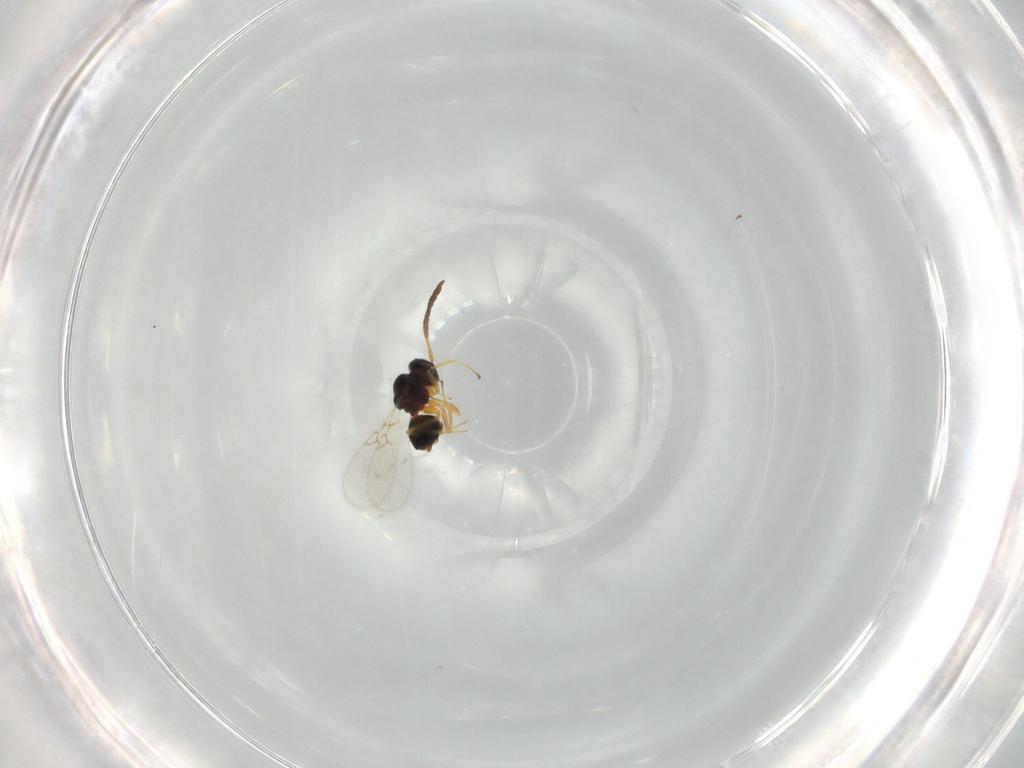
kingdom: Animalia
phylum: Arthropoda
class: Insecta
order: Hymenoptera
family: Figitidae
